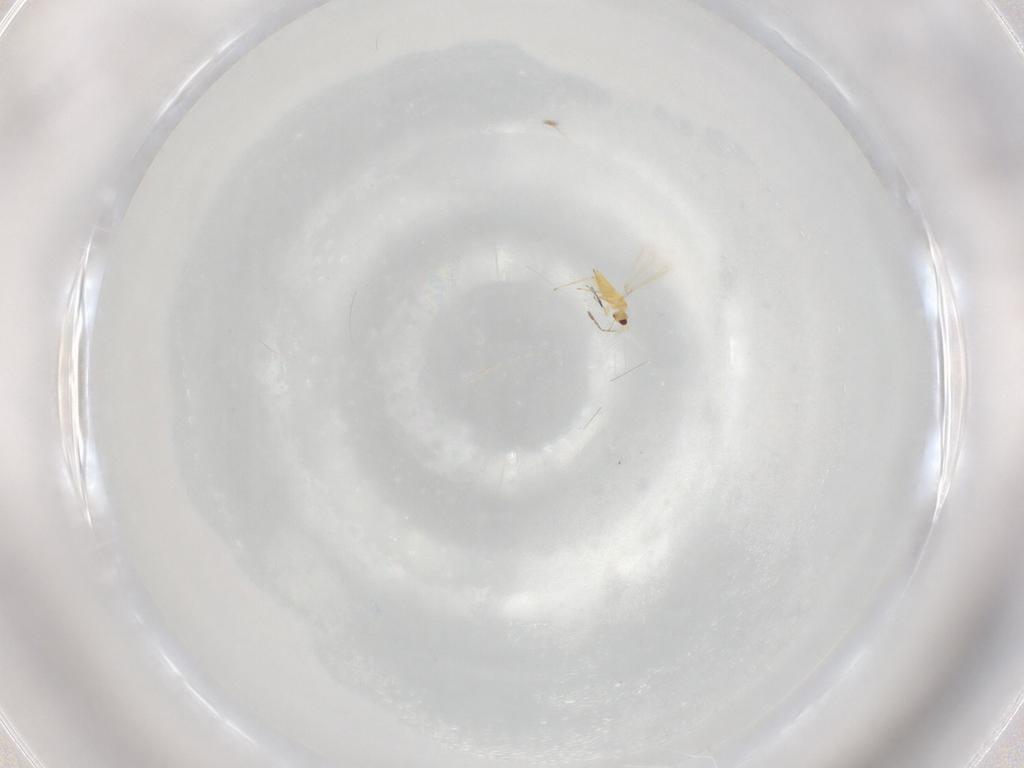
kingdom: Animalia
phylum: Arthropoda
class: Insecta
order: Hymenoptera
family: Mymaridae
